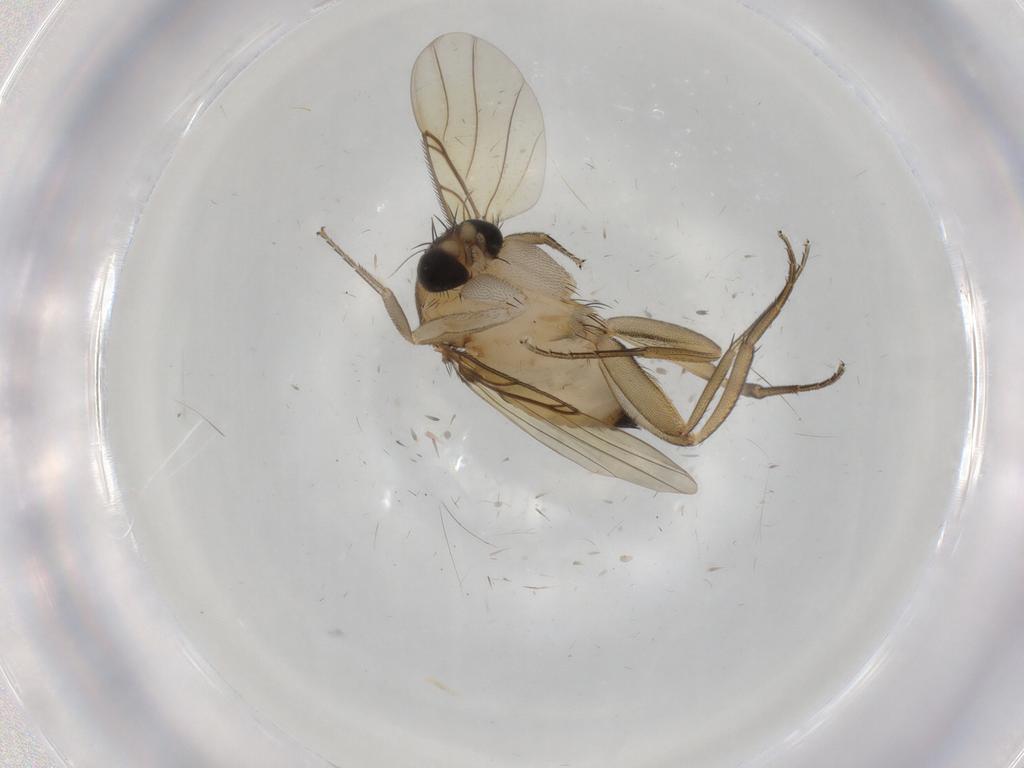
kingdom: Animalia
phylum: Arthropoda
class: Insecta
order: Diptera
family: Phoridae
